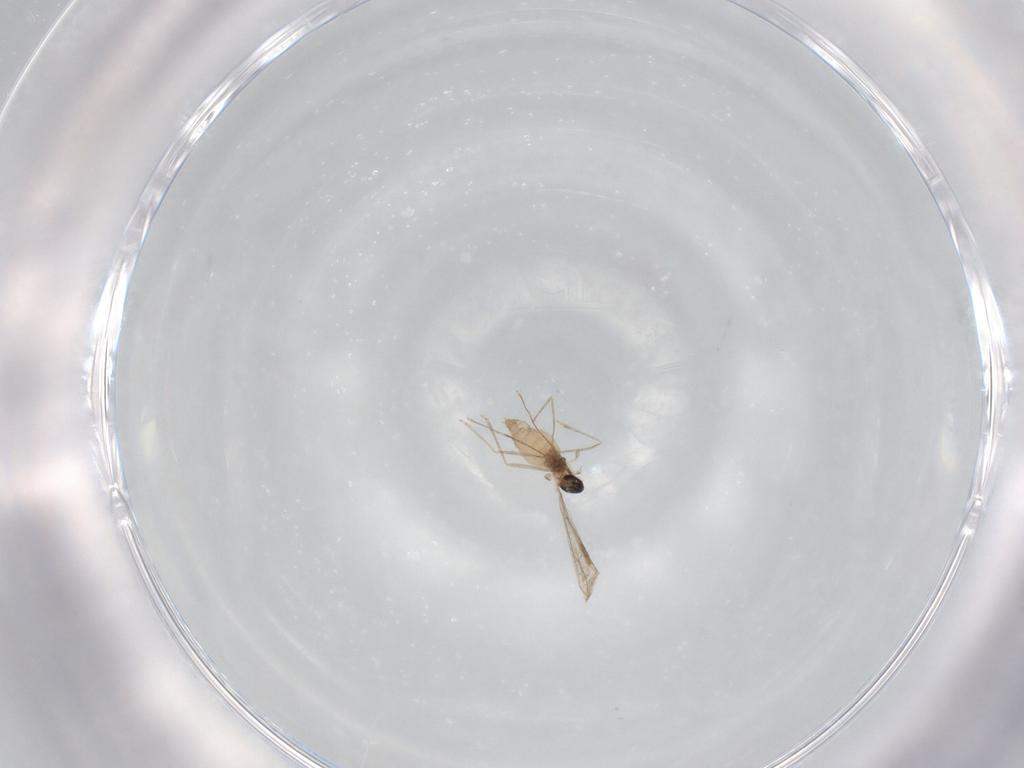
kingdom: Animalia
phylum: Arthropoda
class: Insecta
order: Diptera
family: Cecidomyiidae
